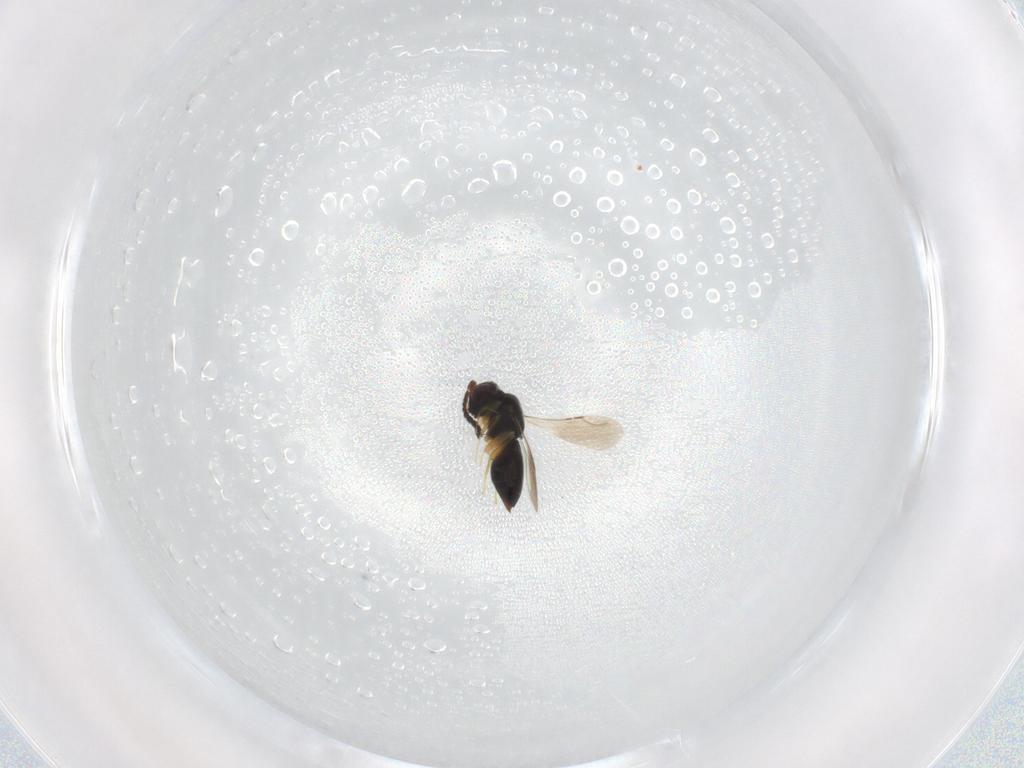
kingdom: Animalia
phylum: Arthropoda
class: Insecta
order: Hymenoptera
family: Ceraphronidae
